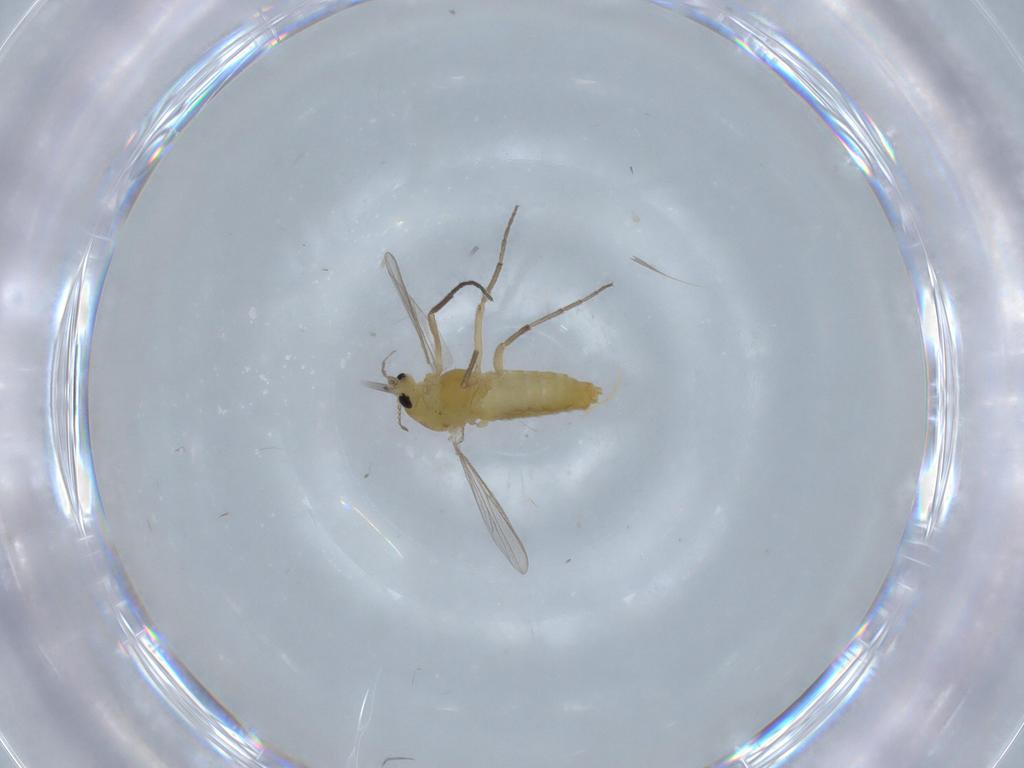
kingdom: Animalia
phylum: Arthropoda
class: Insecta
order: Diptera
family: Chironomidae
